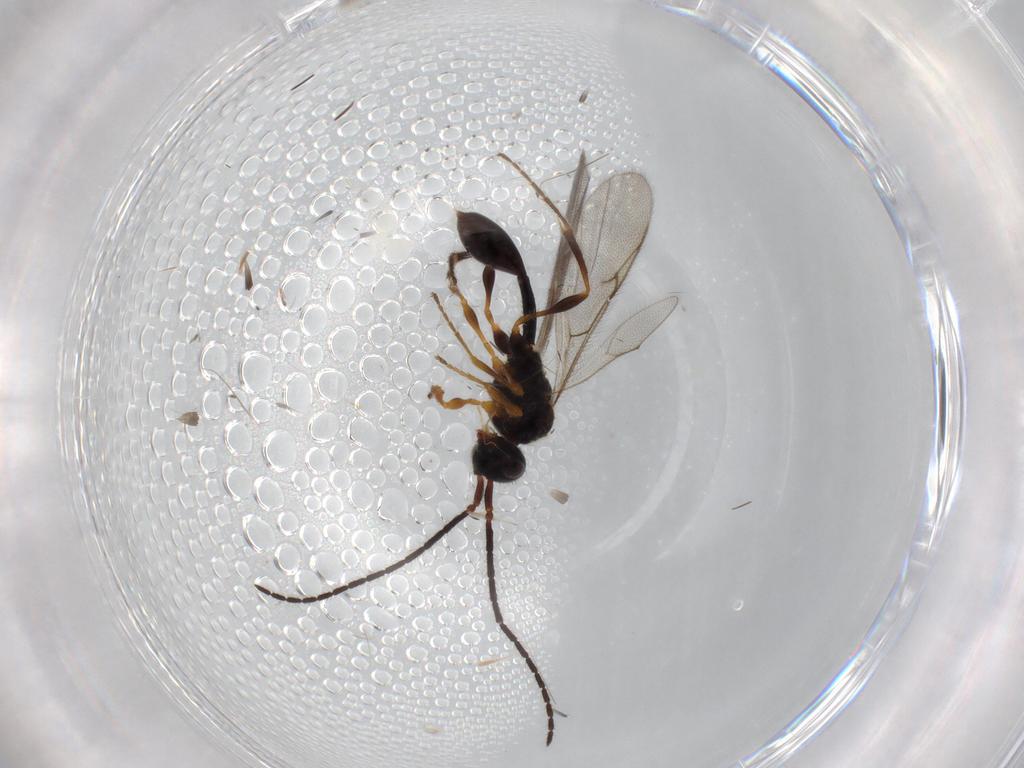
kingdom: Animalia
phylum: Arthropoda
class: Insecta
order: Hymenoptera
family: Diapriidae
